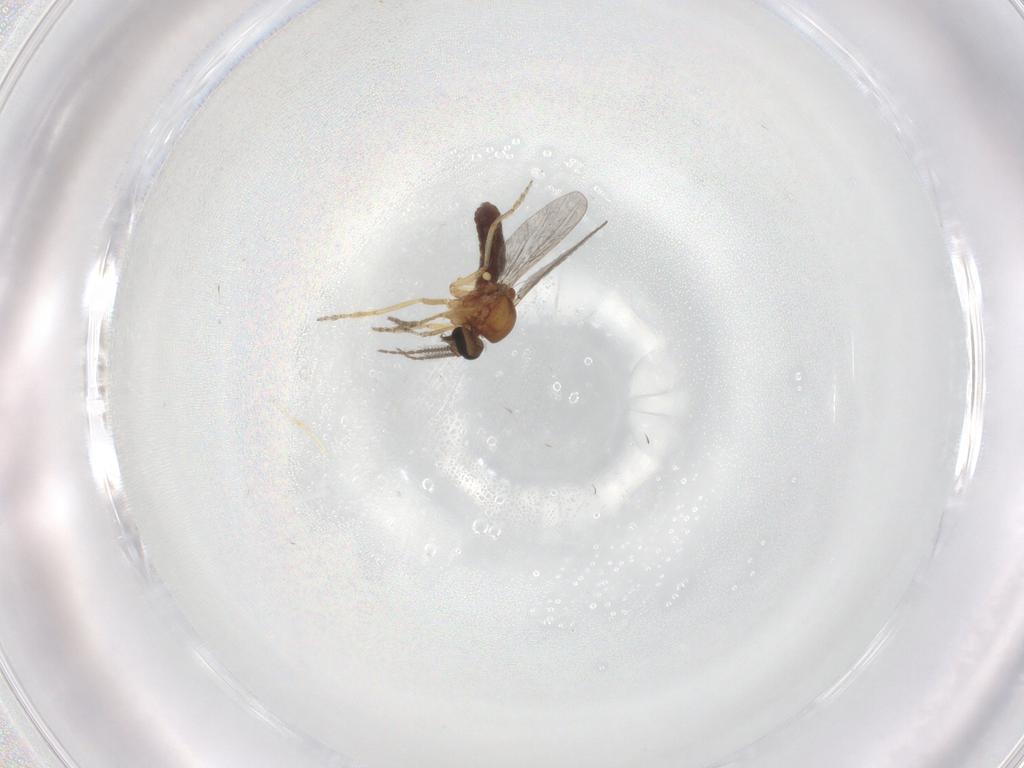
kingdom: Animalia
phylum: Arthropoda
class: Insecta
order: Diptera
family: Ceratopogonidae
